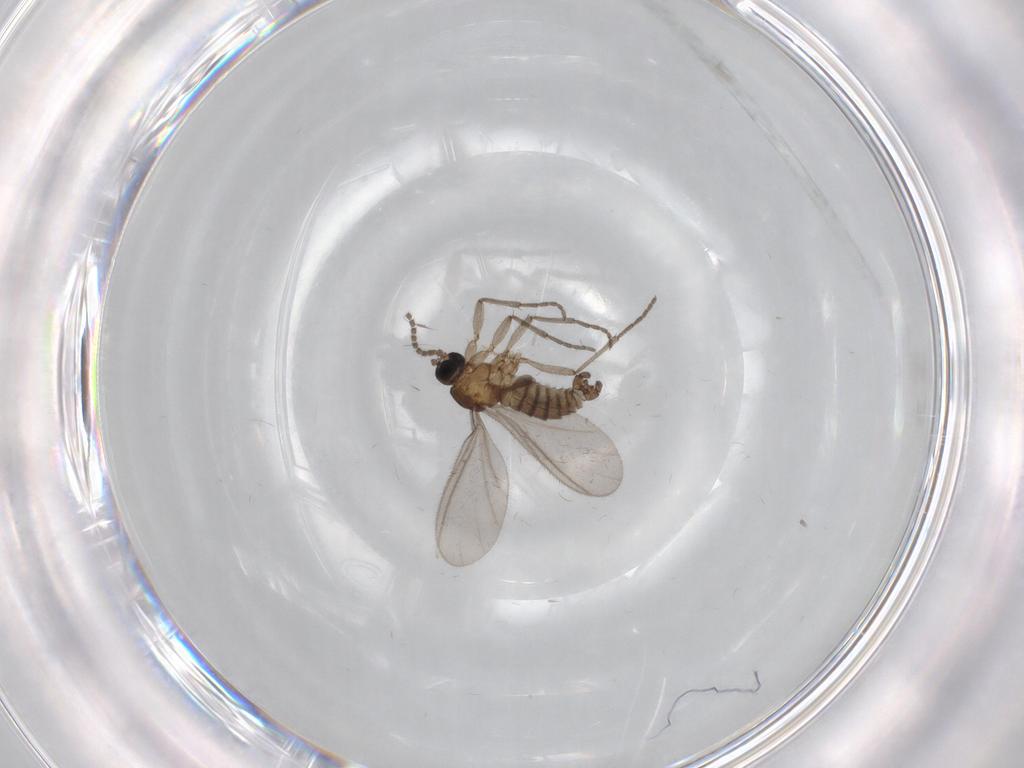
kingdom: Animalia
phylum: Arthropoda
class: Insecta
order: Diptera
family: Sciaridae
